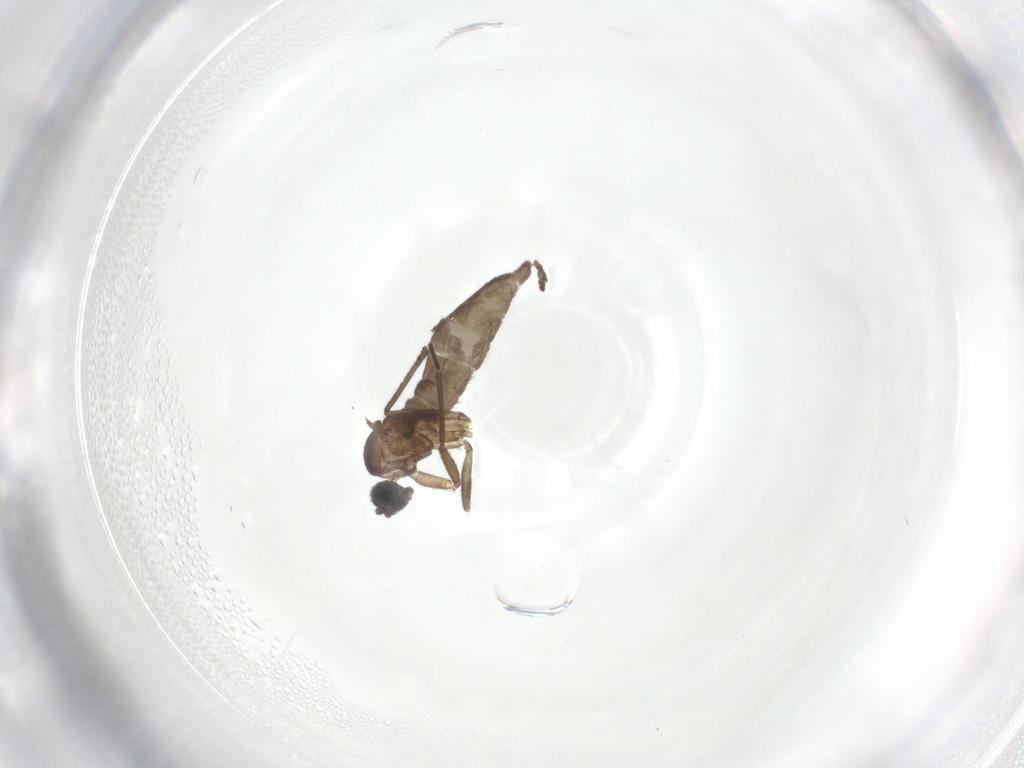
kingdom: Animalia
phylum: Arthropoda
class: Insecta
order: Diptera
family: Sciaridae
